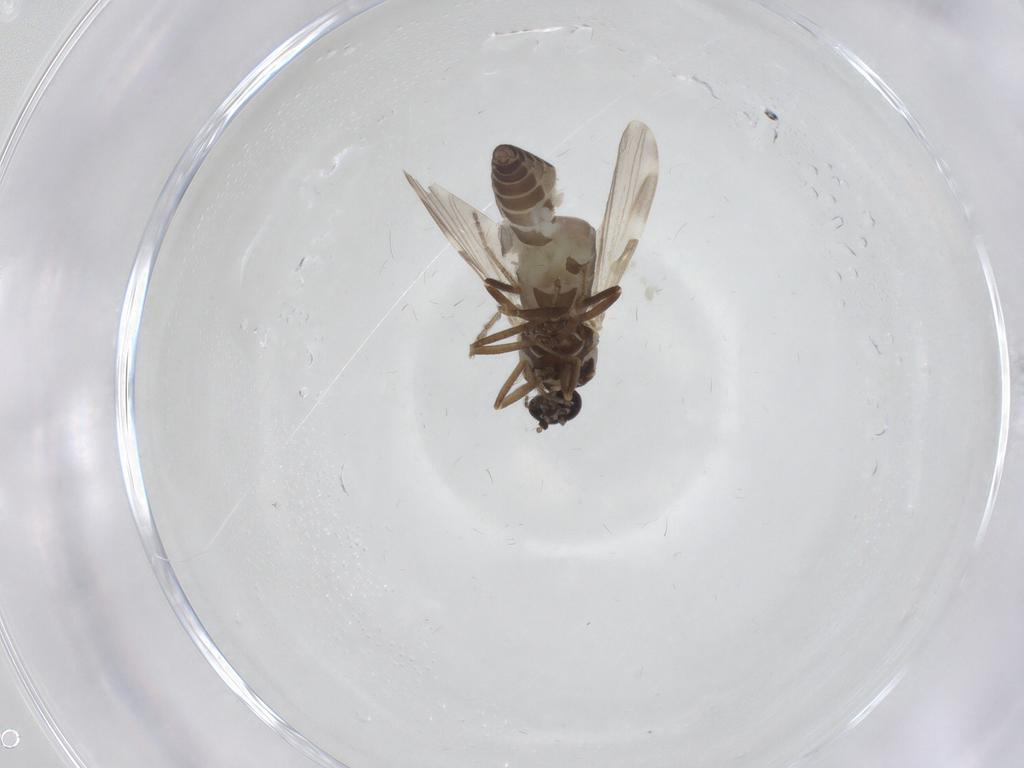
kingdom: Animalia
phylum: Arthropoda
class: Insecta
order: Diptera
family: Ceratopogonidae
